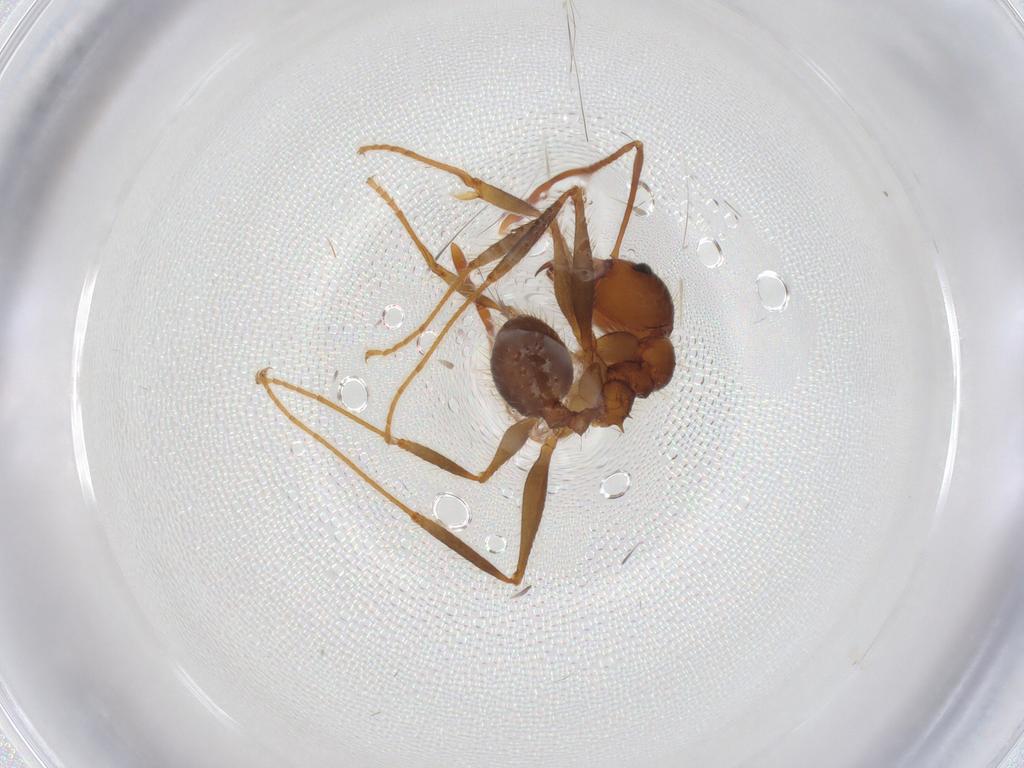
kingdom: Animalia
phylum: Arthropoda
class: Insecta
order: Hymenoptera
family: Formicidae
